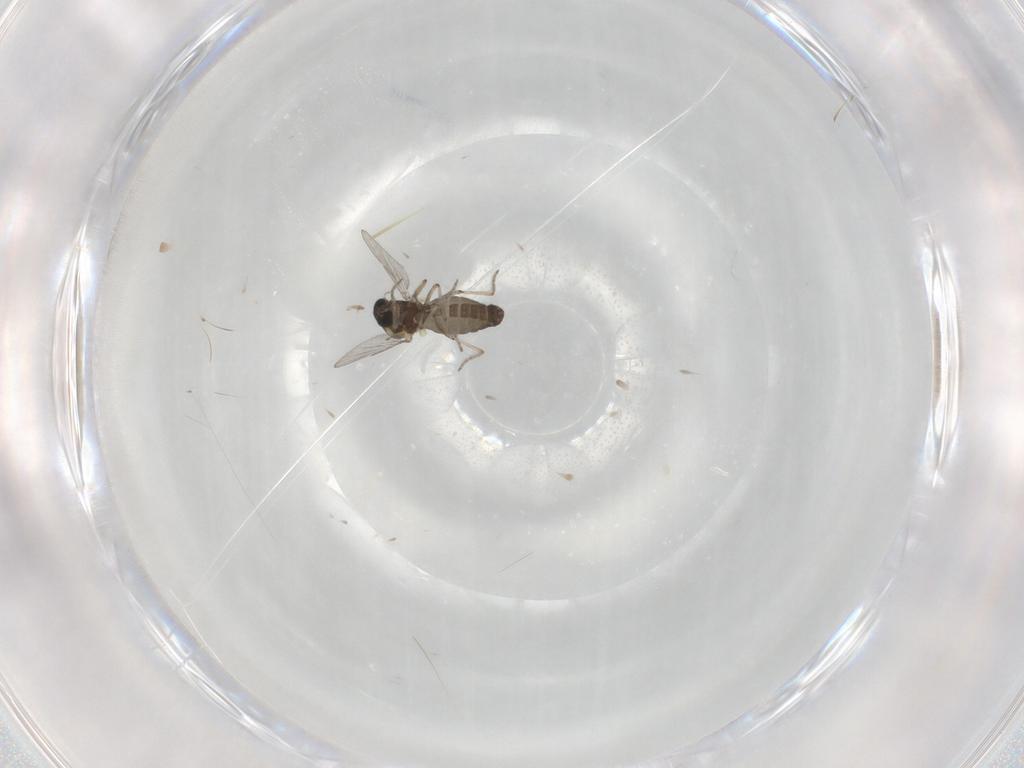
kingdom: Animalia
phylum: Arthropoda
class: Insecta
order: Diptera
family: Ceratopogonidae
